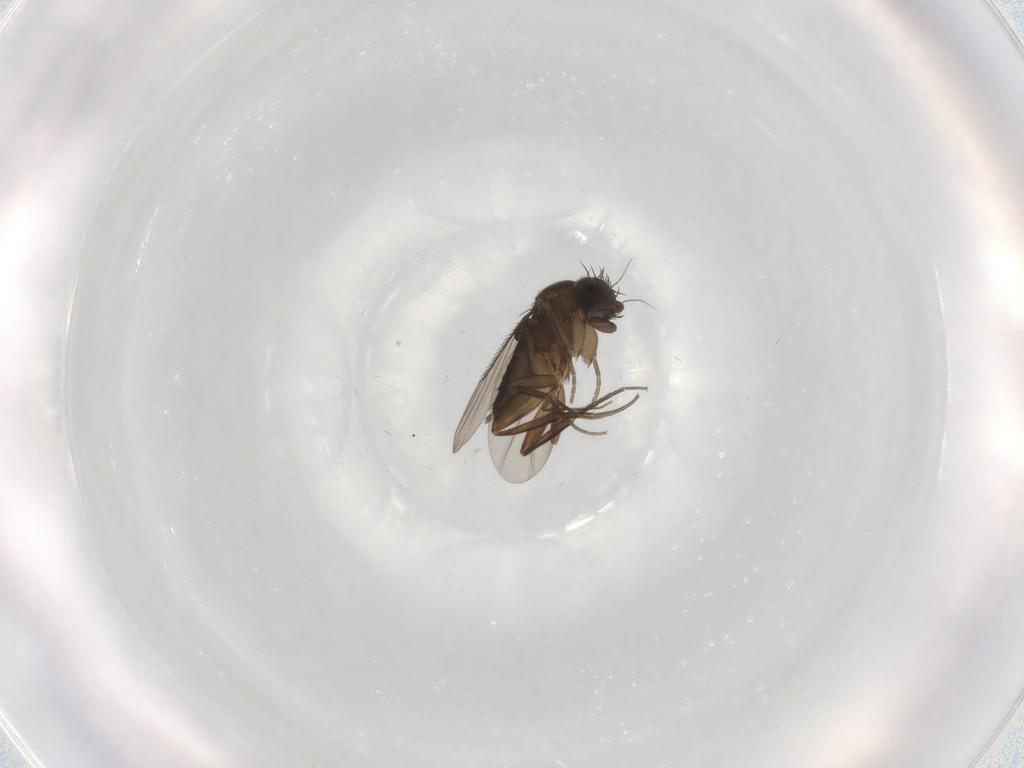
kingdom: Animalia
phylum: Arthropoda
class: Insecta
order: Diptera
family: Phoridae
